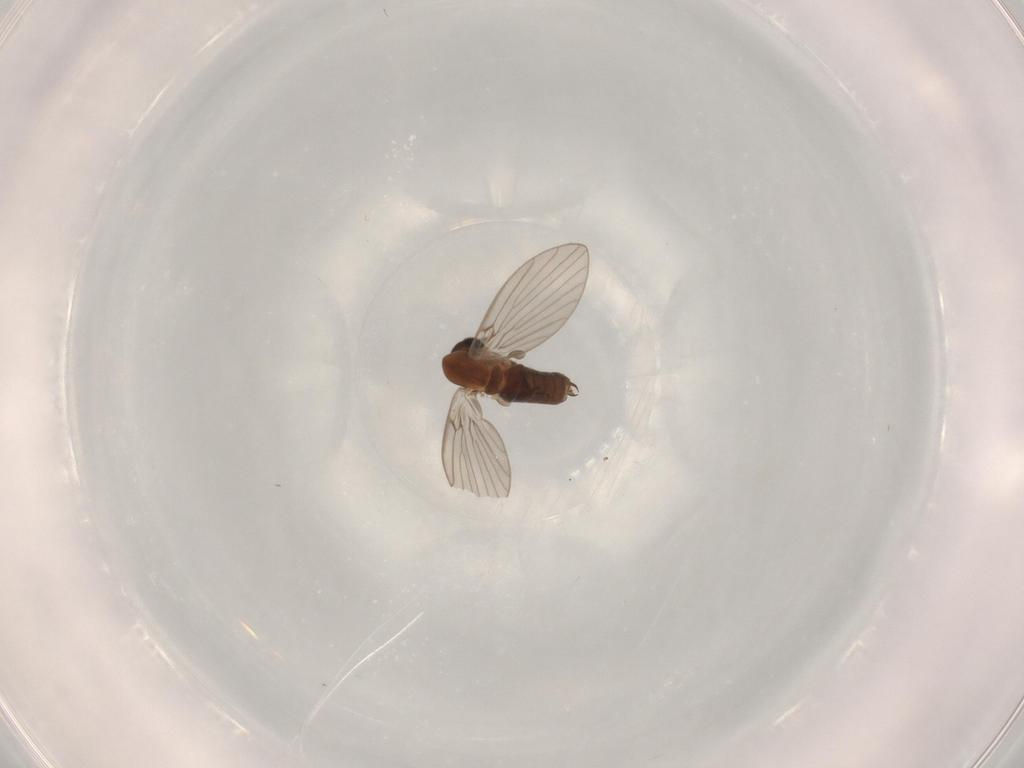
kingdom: Animalia
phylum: Arthropoda
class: Insecta
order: Diptera
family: Psychodidae
